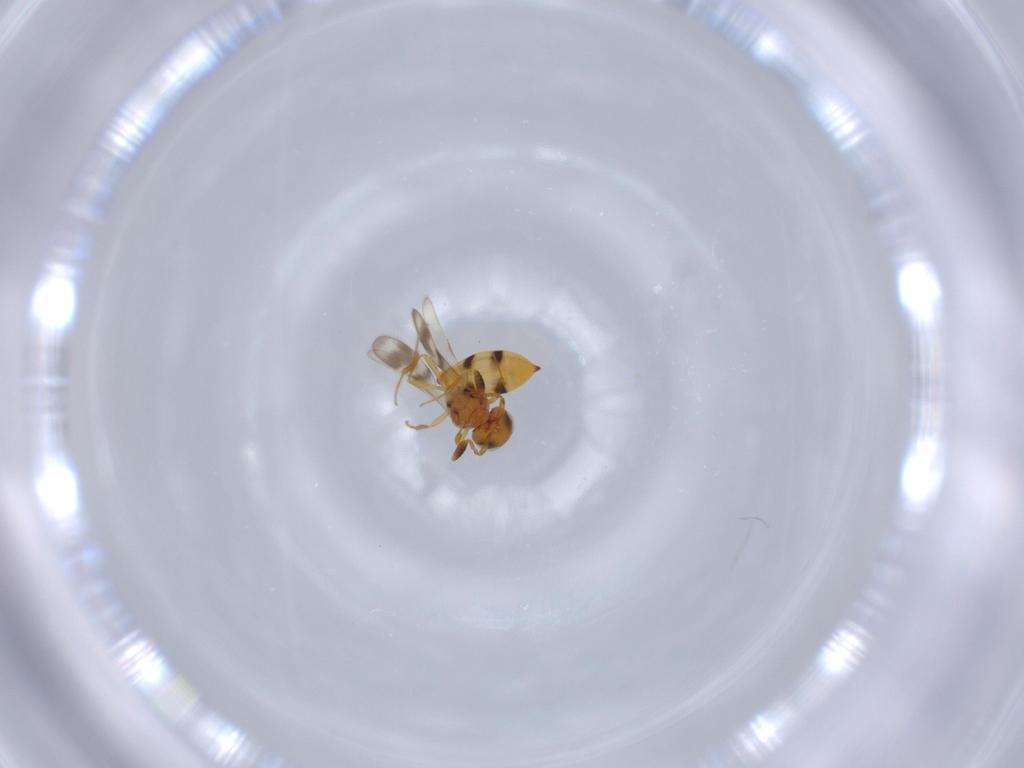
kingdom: Animalia
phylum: Arthropoda
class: Insecta
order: Hymenoptera
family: Scelionidae
